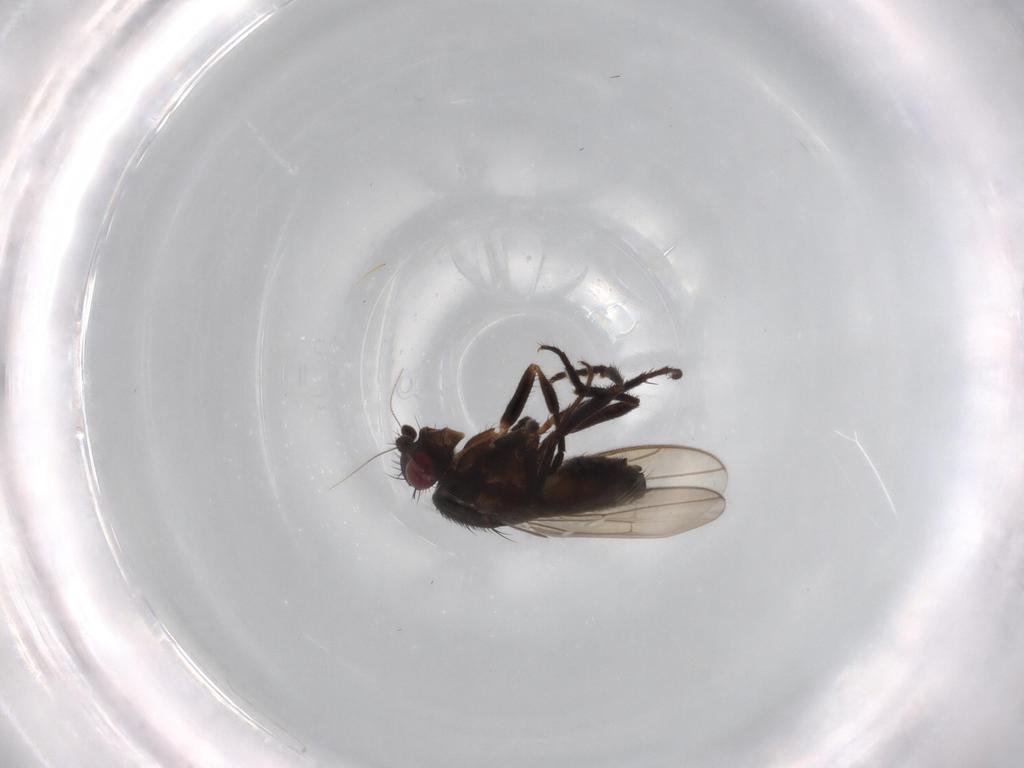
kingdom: Animalia
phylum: Arthropoda
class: Insecta
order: Diptera
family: Sphaeroceridae
